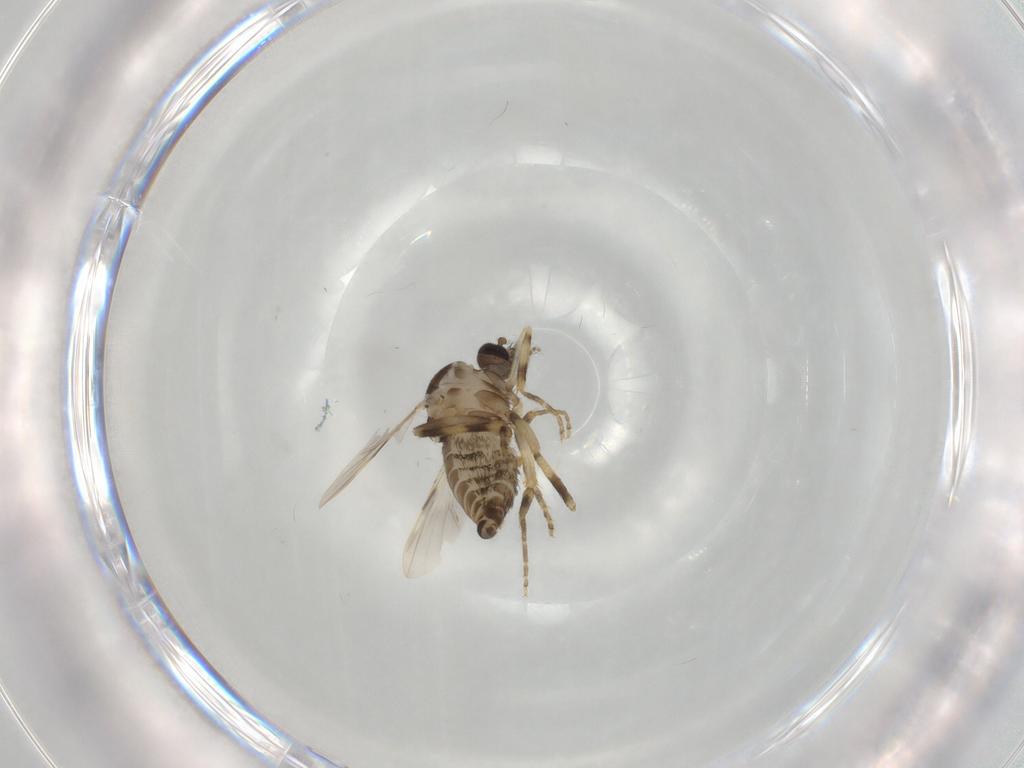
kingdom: Animalia
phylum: Arthropoda
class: Insecta
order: Diptera
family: Ceratopogonidae
